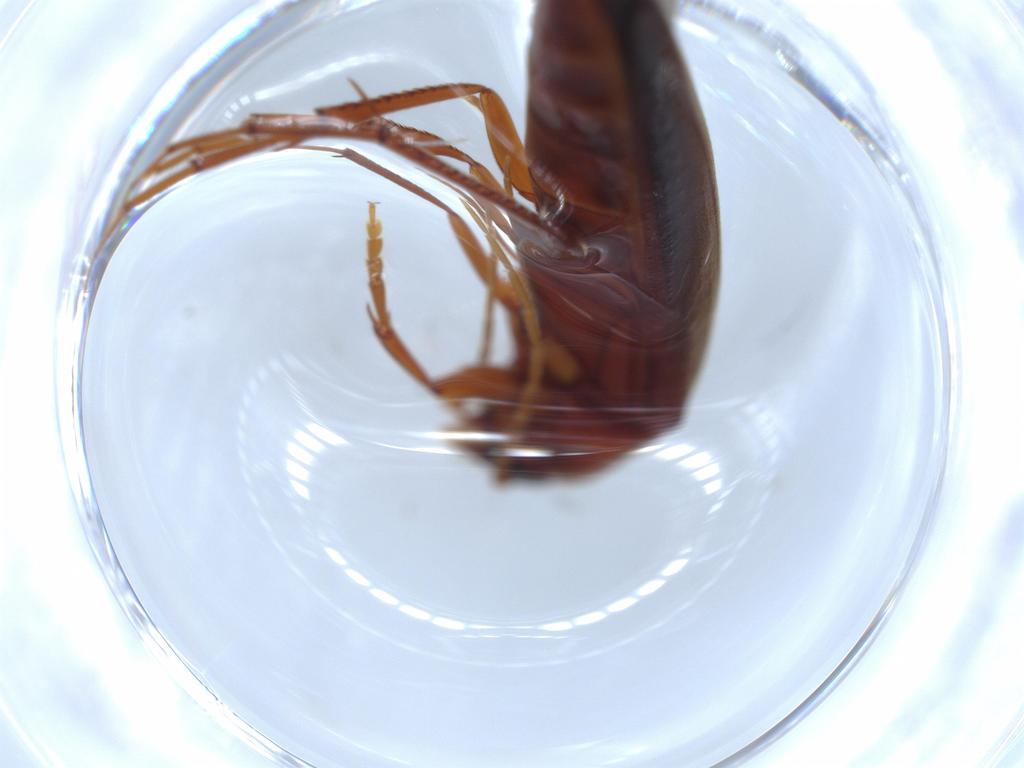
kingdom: Animalia
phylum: Arthropoda
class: Insecta
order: Coleoptera
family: Chrysomelidae
